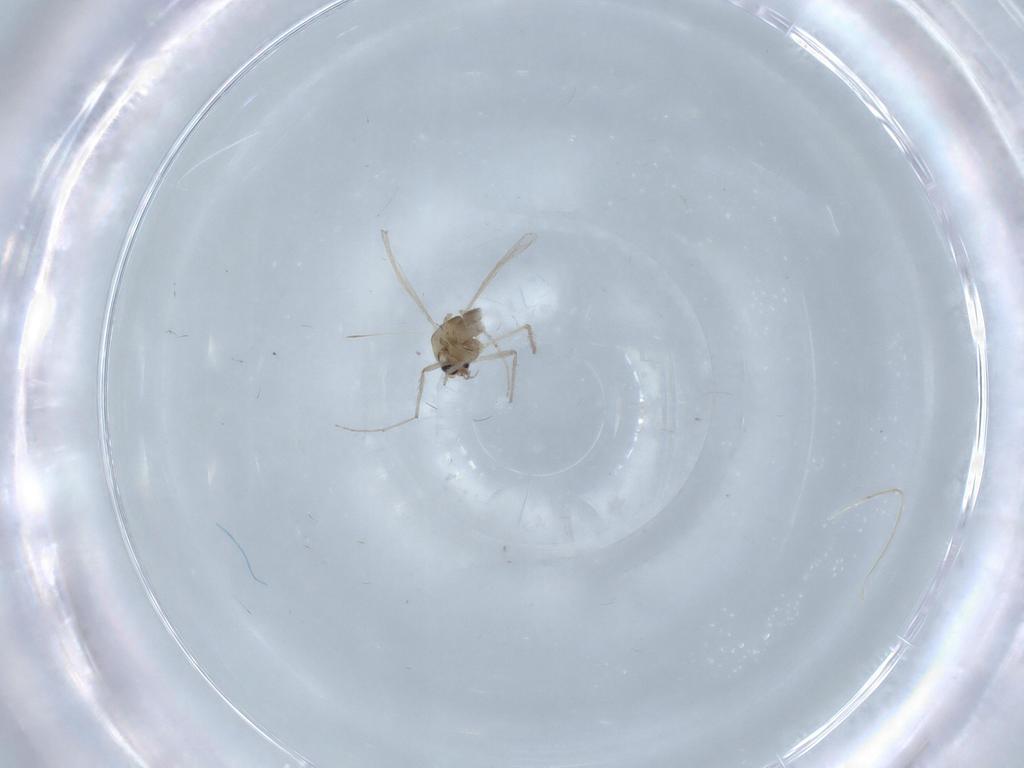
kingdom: Animalia
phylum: Arthropoda
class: Insecta
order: Diptera
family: Chironomidae
